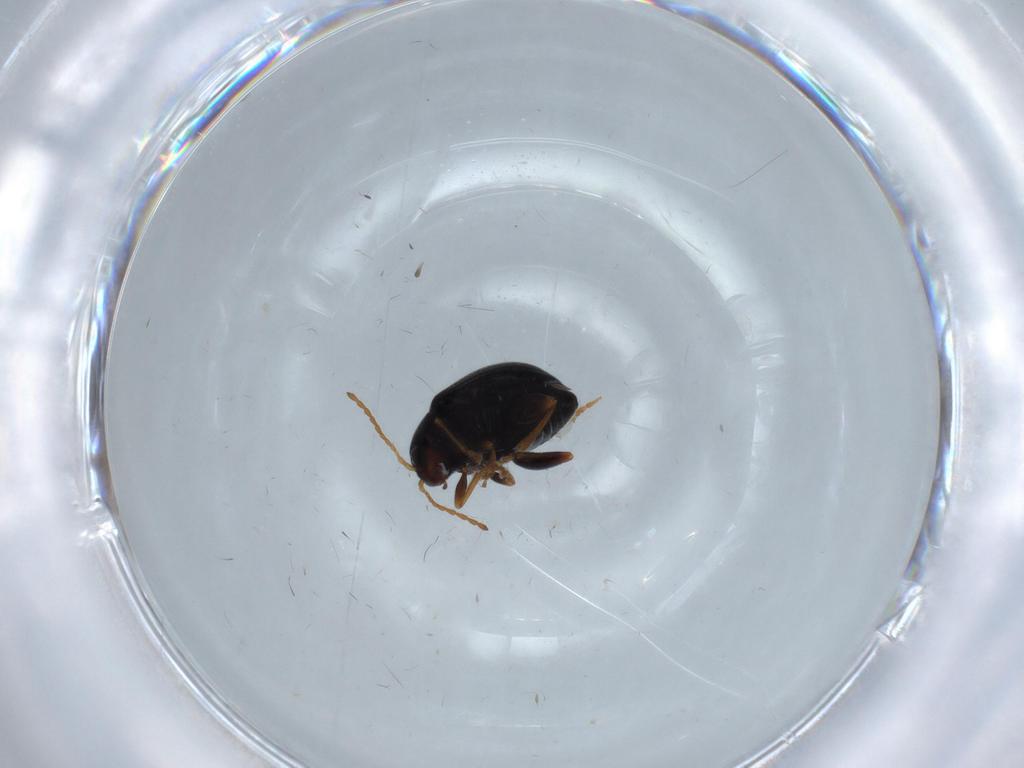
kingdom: Animalia
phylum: Arthropoda
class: Insecta
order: Coleoptera
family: Chrysomelidae
